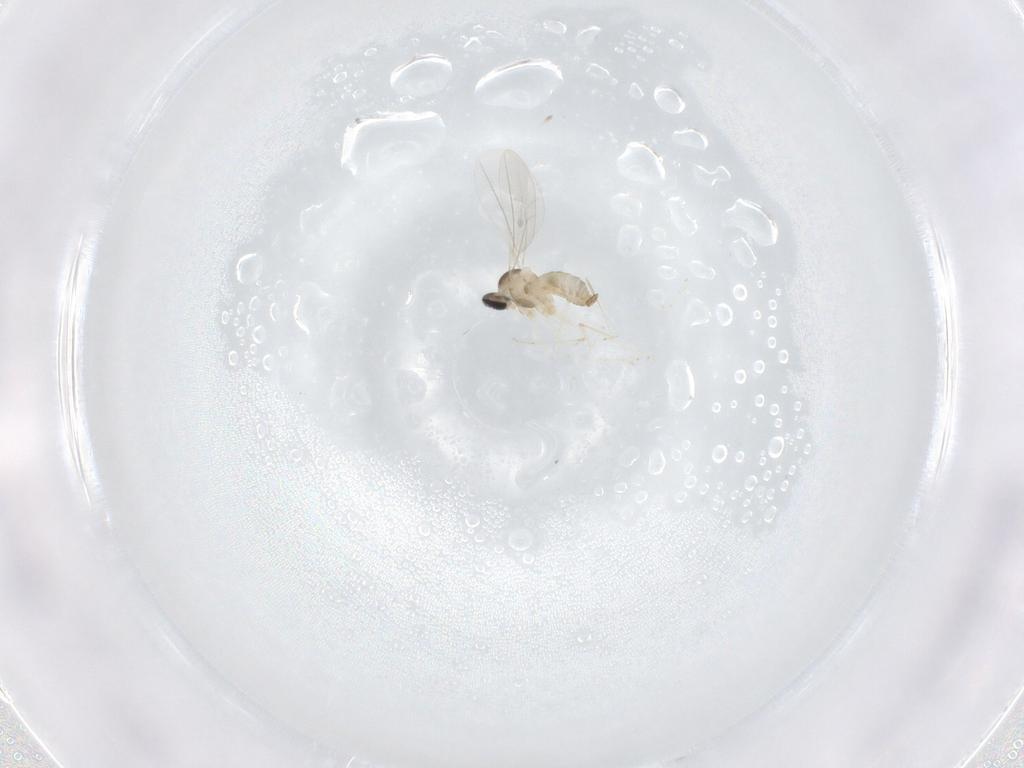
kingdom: Animalia
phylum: Arthropoda
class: Insecta
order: Diptera
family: Cecidomyiidae
